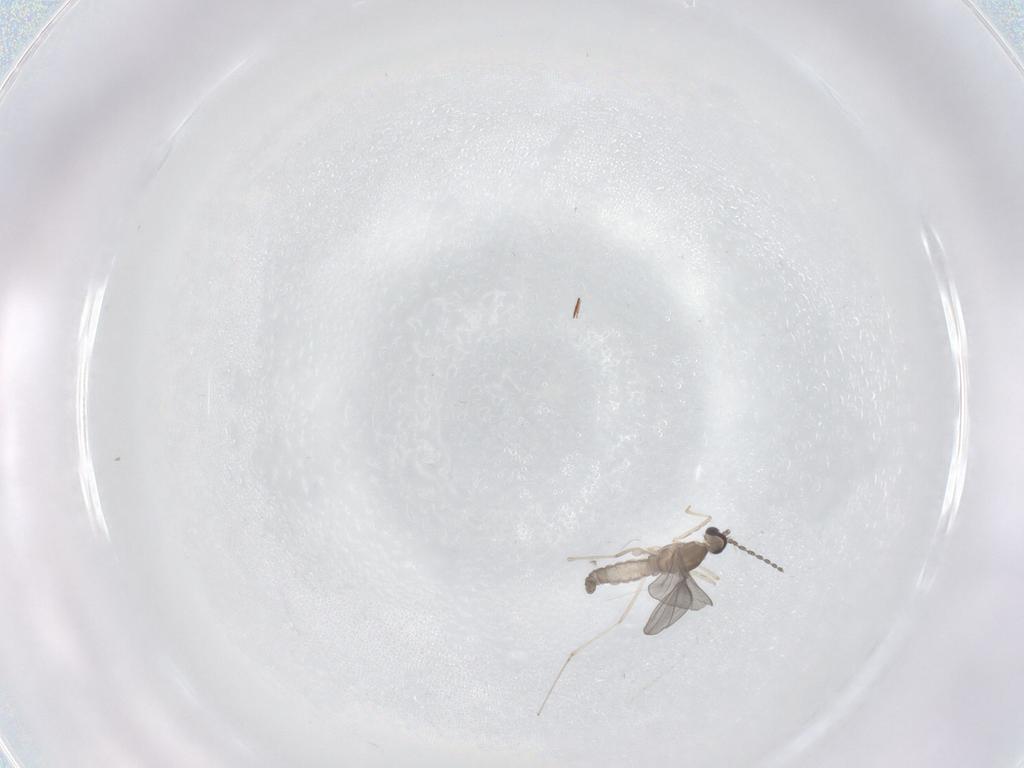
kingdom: Animalia
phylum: Arthropoda
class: Insecta
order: Diptera
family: Cecidomyiidae
